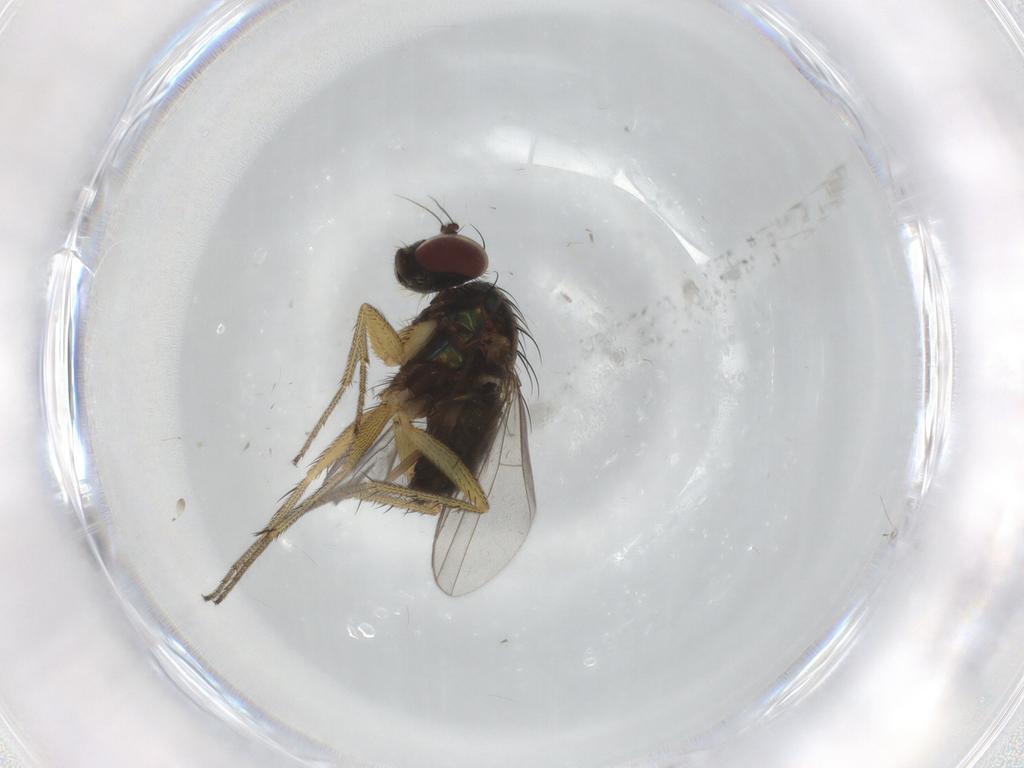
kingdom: Animalia
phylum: Arthropoda
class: Insecta
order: Diptera
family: Chironomidae
